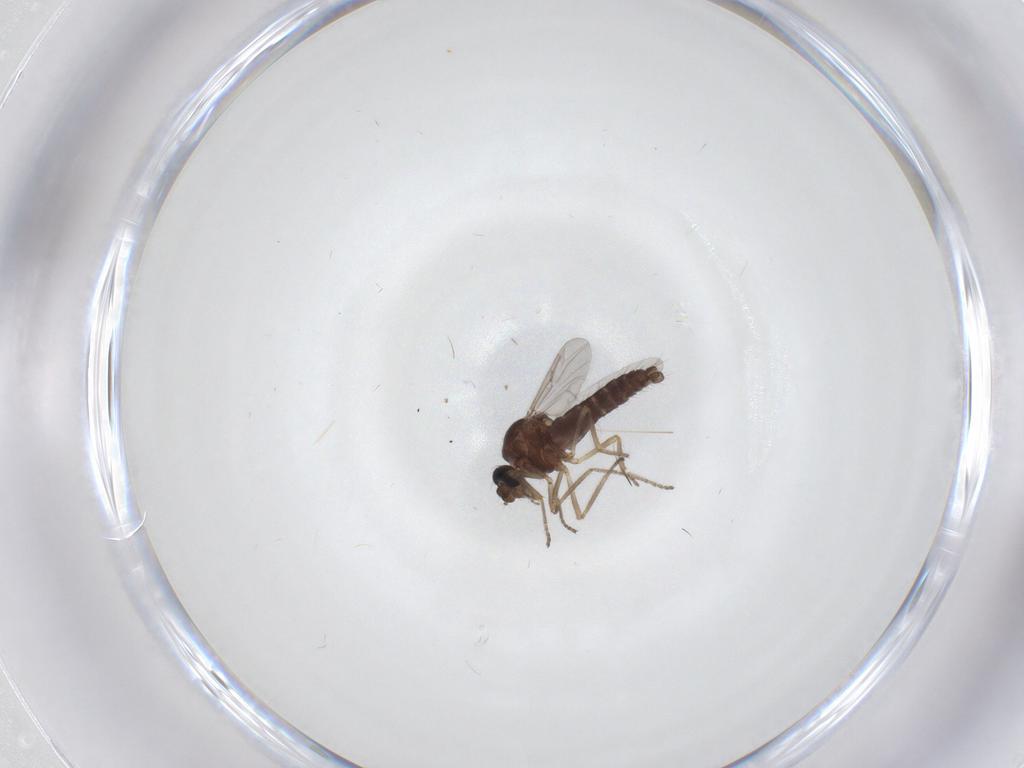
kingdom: Animalia
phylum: Arthropoda
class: Insecta
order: Diptera
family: Ceratopogonidae
